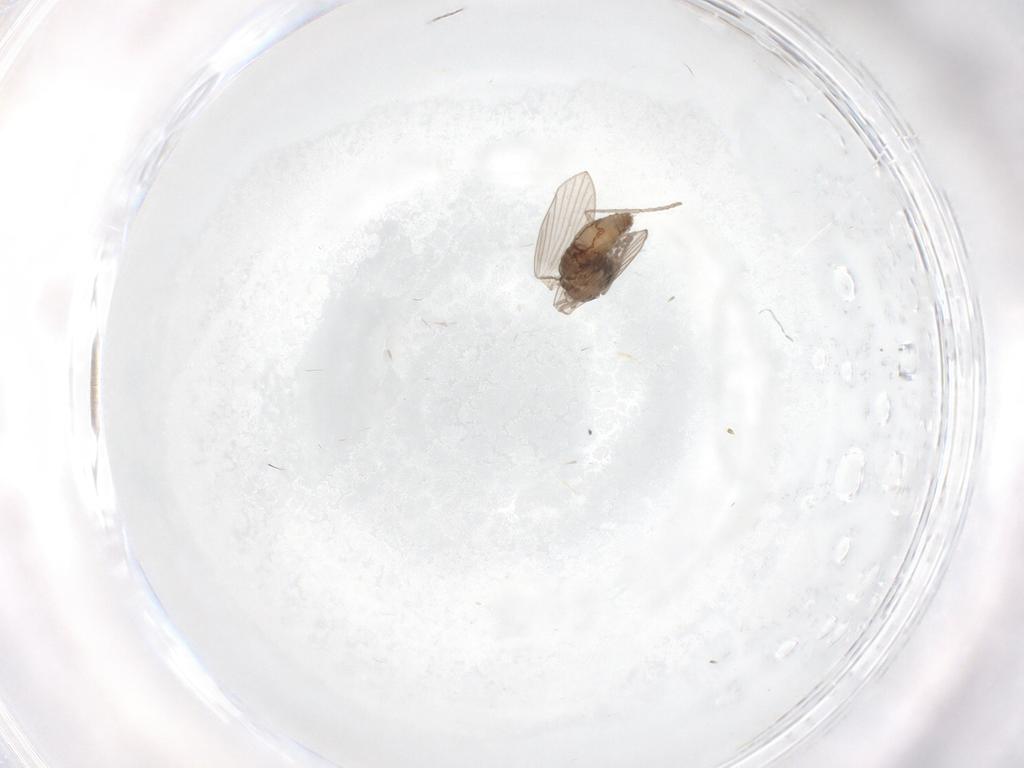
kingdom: Animalia
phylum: Arthropoda
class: Insecta
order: Diptera
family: Psychodidae
